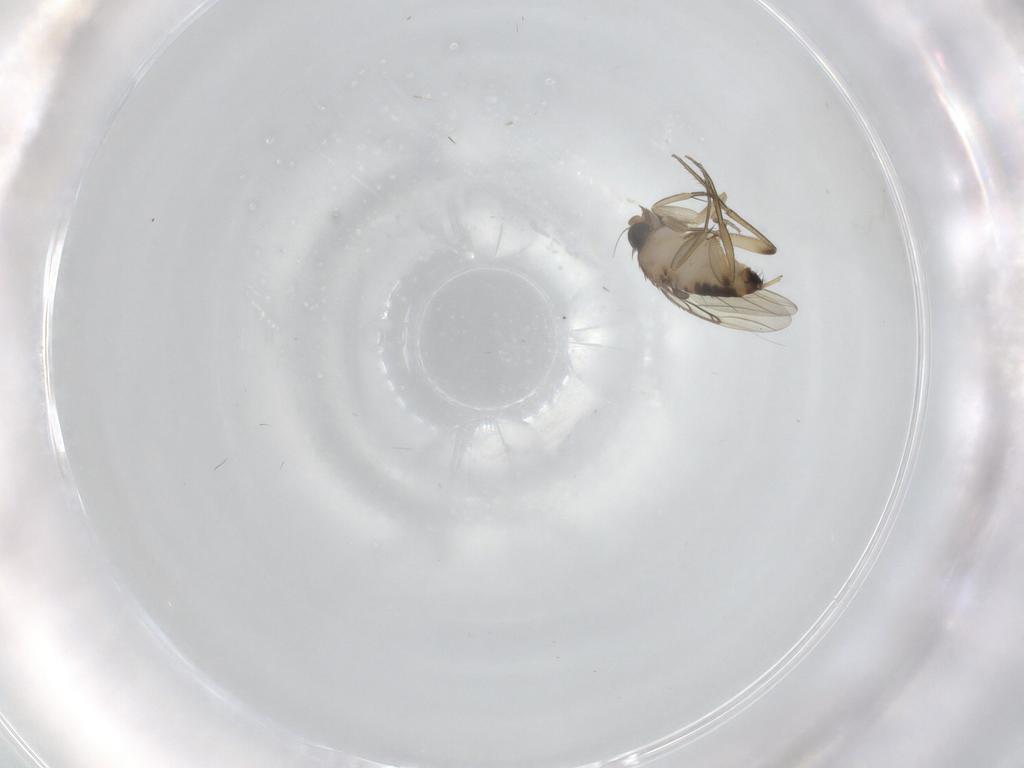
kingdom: Animalia
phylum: Arthropoda
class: Insecta
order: Diptera
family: Phoridae
